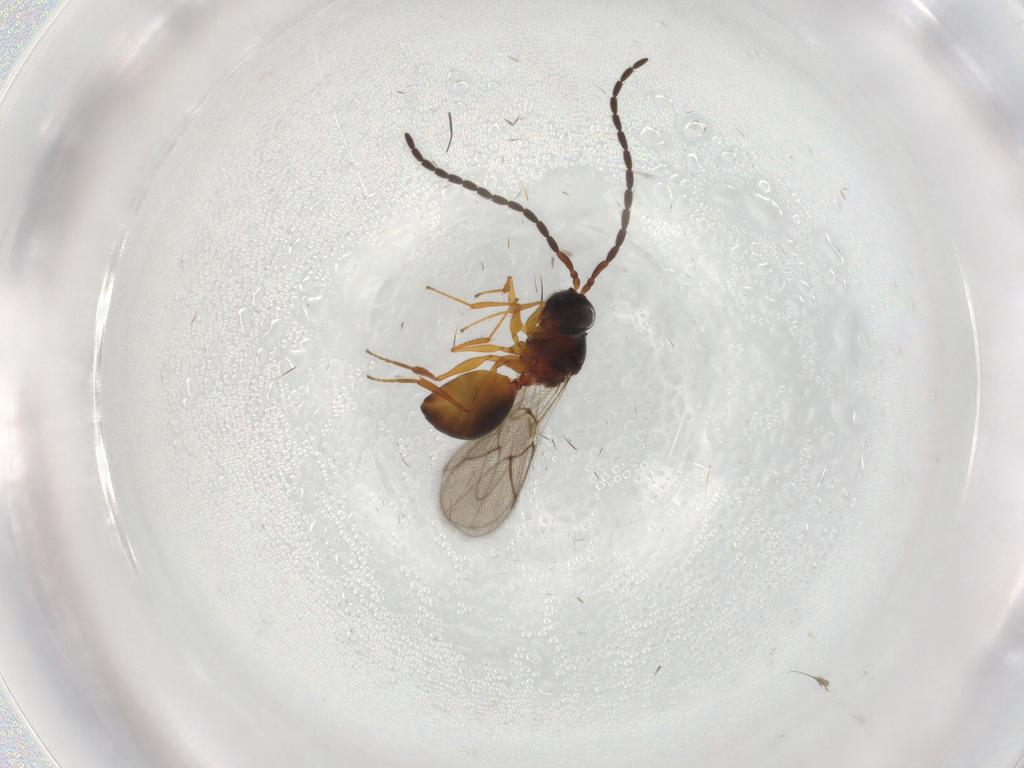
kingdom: Animalia
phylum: Arthropoda
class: Insecta
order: Hymenoptera
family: Figitidae
